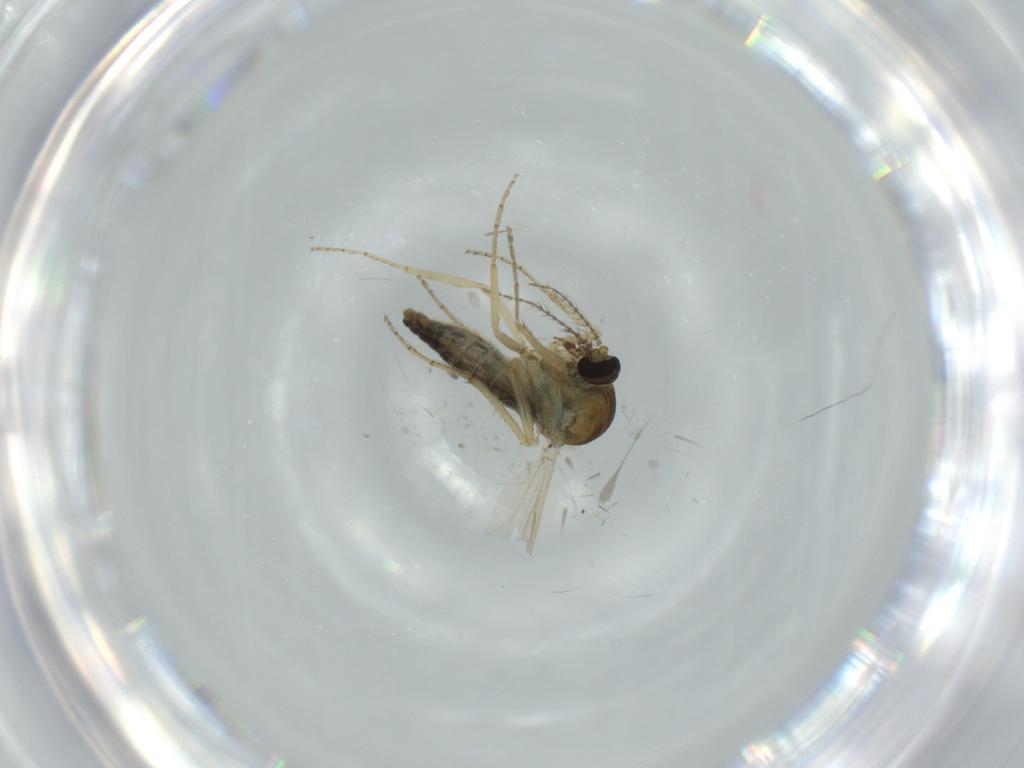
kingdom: Animalia
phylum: Arthropoda
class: Insecta
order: Diptera
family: Ceratopogonidae
